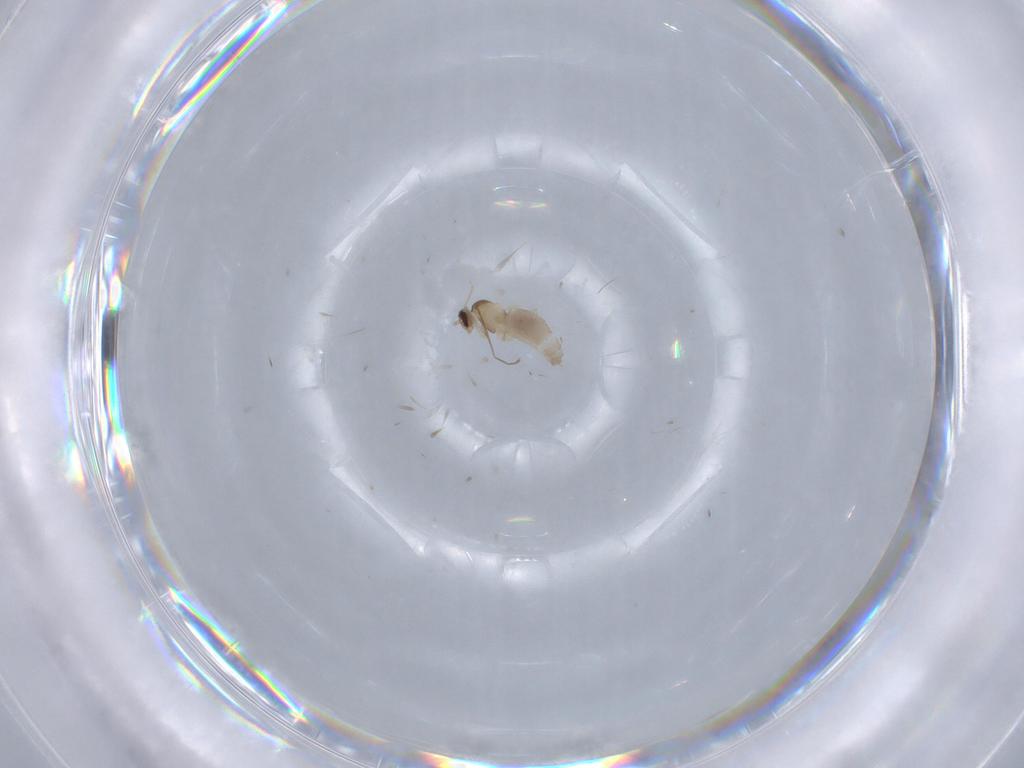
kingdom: Animalia
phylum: Arthropoda
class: Insecta
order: Diptera
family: Cecidomyiidae
